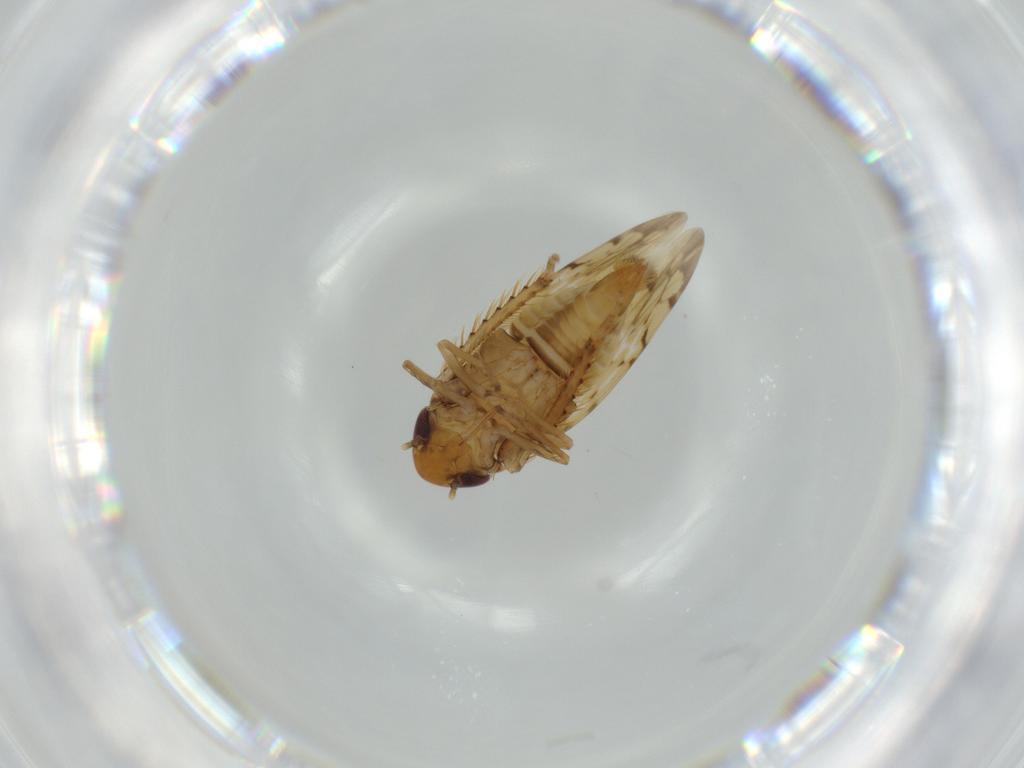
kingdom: Animalia
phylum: Arthropoda
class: Insecta
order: Hemiptera
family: Cicadellidae
